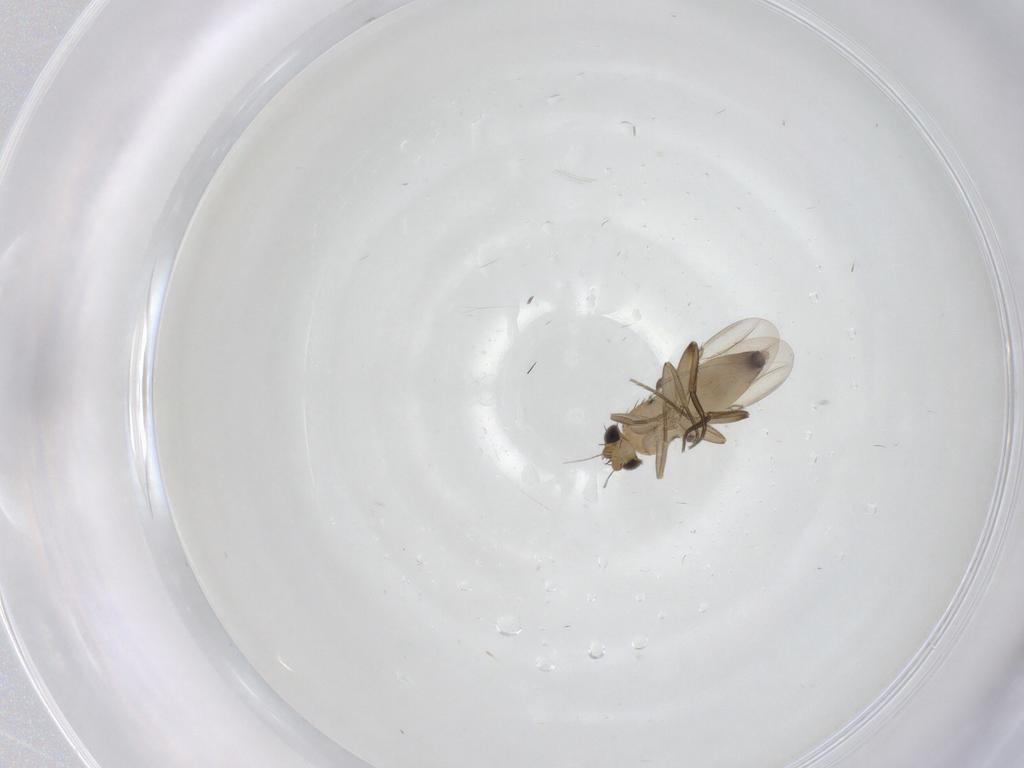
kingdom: Animalia
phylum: Arthropoda
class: Insecta
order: Diptera
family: Phoridae
